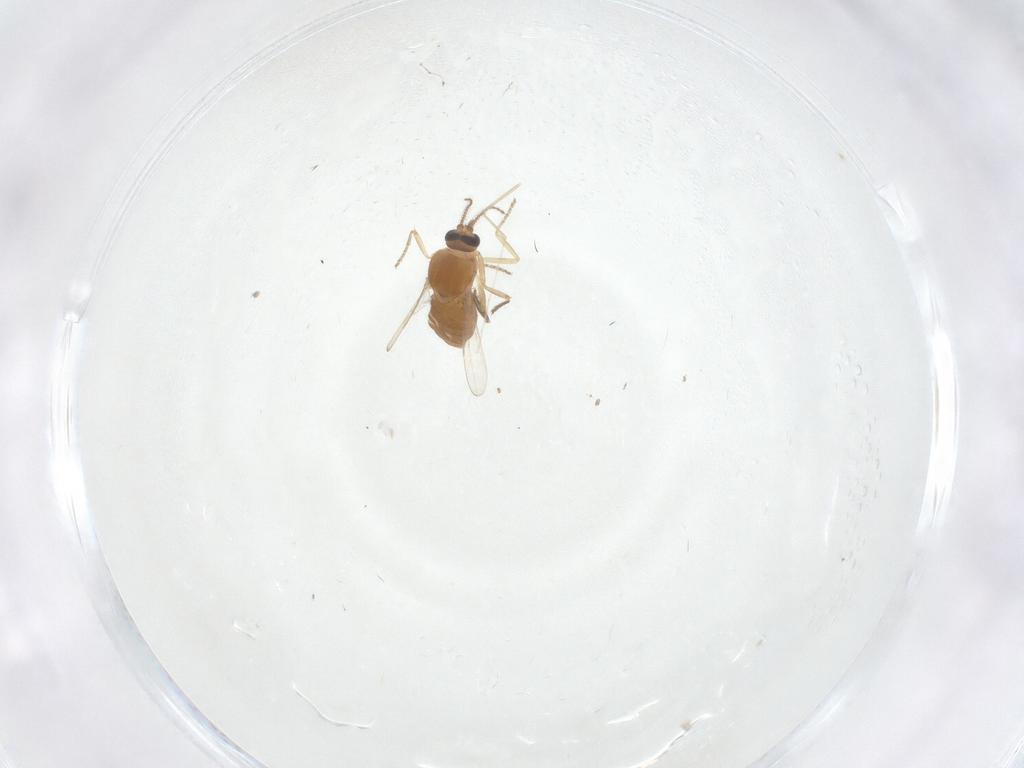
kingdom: Animalia
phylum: Arthropoda
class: Insecta
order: Diptera
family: Ceratopogonidae
